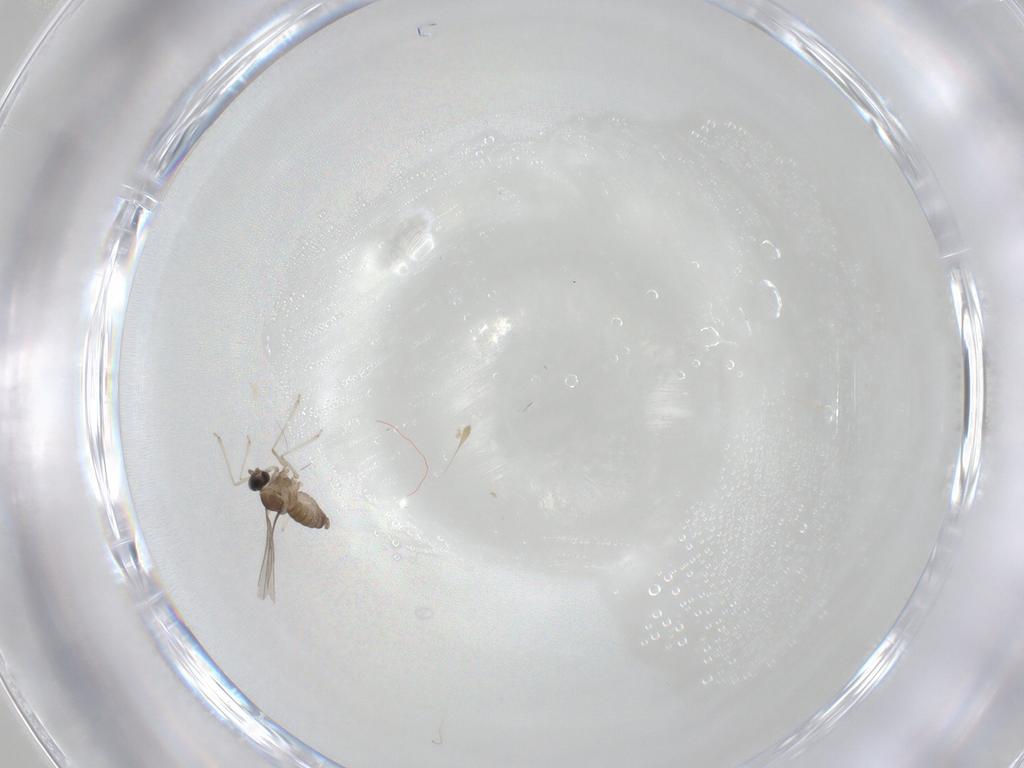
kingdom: Animalia
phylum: Arthropoda
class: Insecta
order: Diptera
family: Cecidomyiidae
